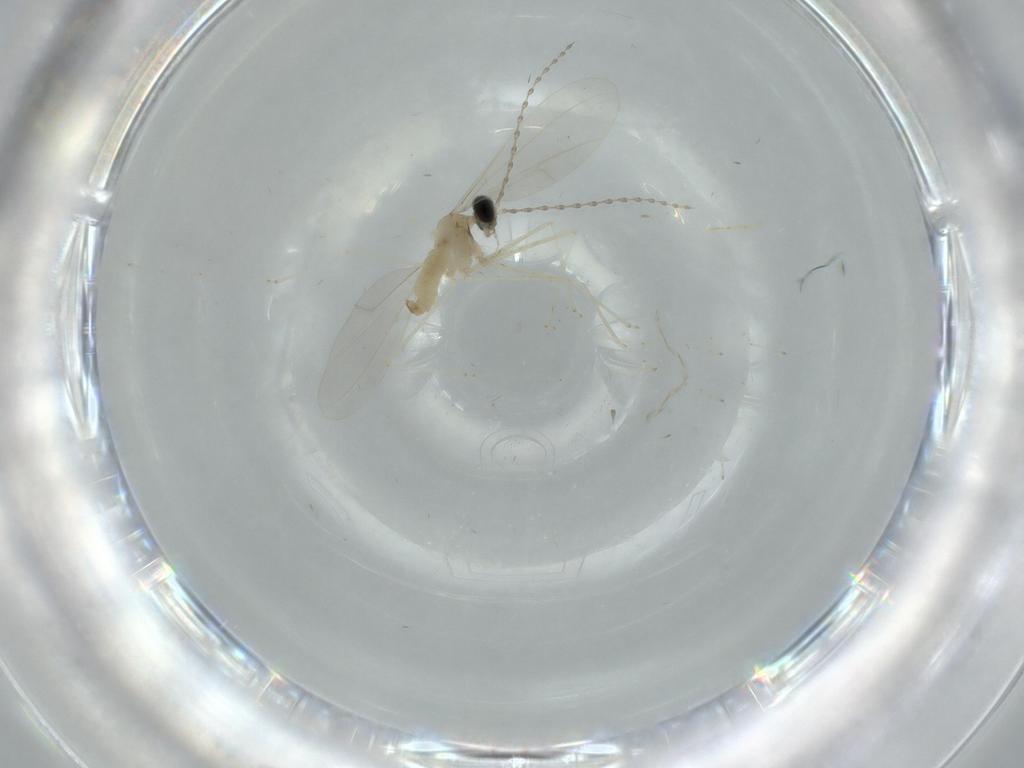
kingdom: Animalia
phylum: Arthropoda
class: Insecta
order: Diptera
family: Cecidomyiidae
